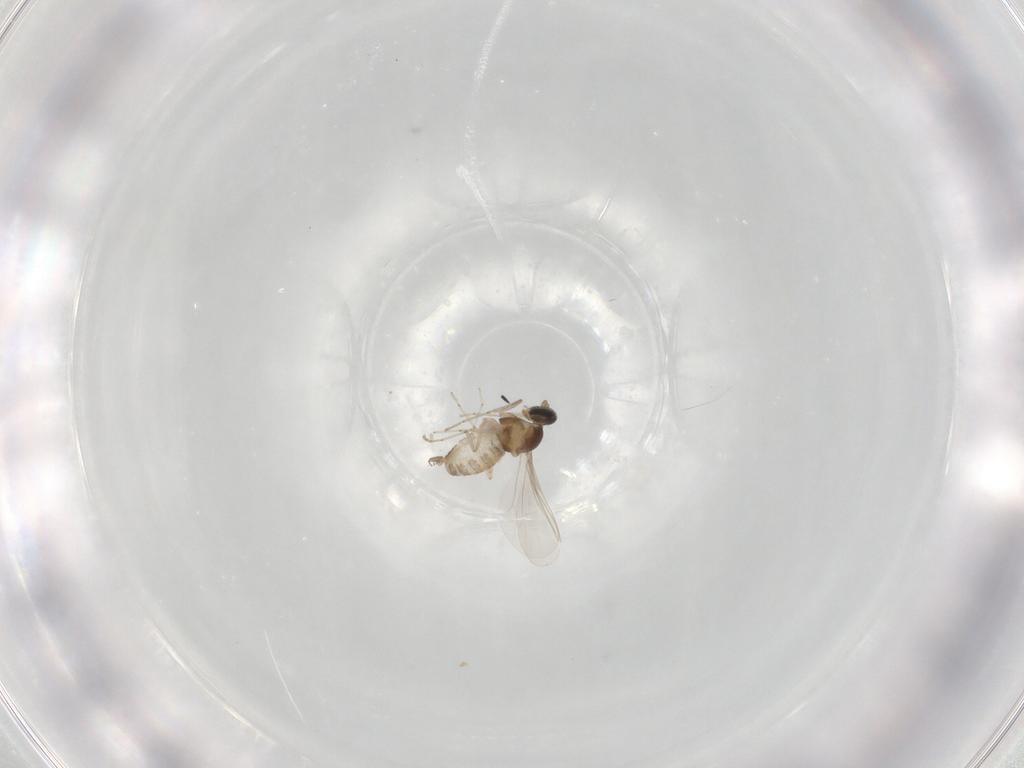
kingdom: Animalia
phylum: Arthropoda
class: Insecta
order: Diptera
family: Cecidomyiidae
